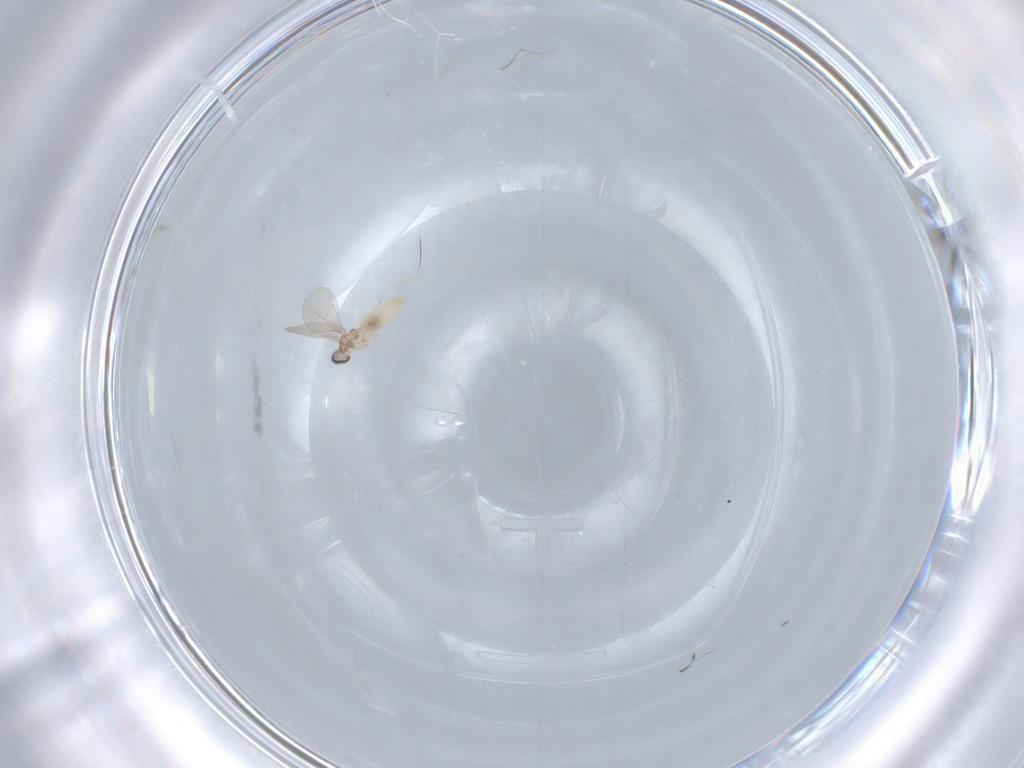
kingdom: Animalia
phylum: Arthropoda
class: Insecta
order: Diptera
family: Cecidomyiidae
